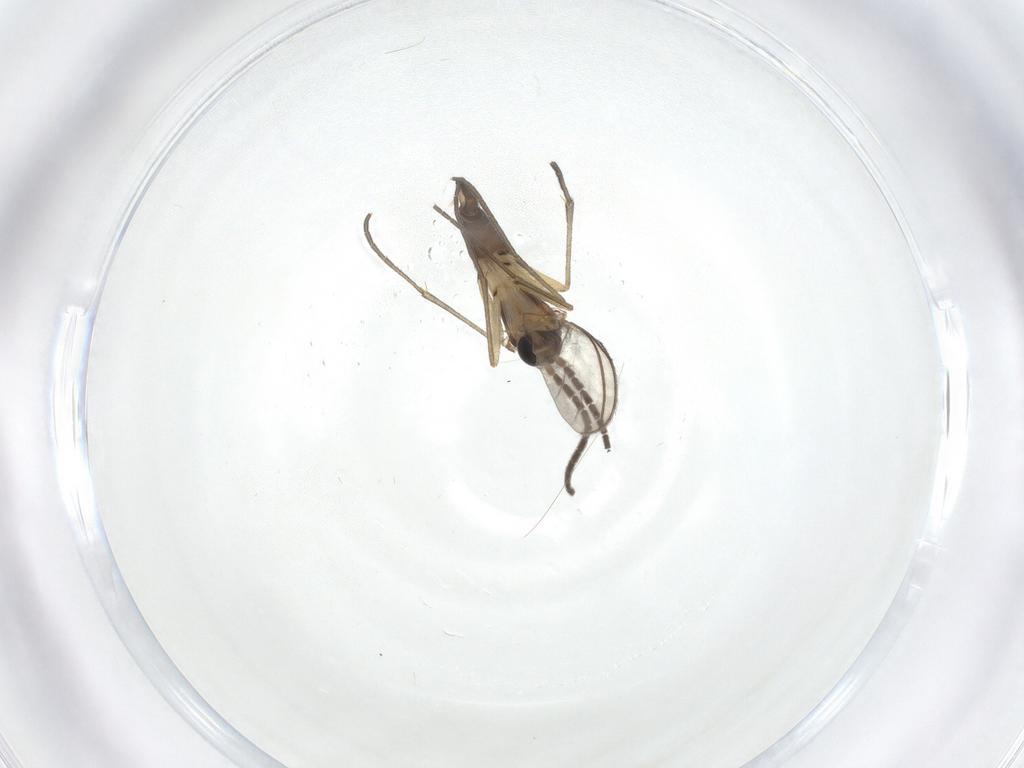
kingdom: Animalia
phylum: Arthropoda
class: Insecta
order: Diptera
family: Sciaridae
